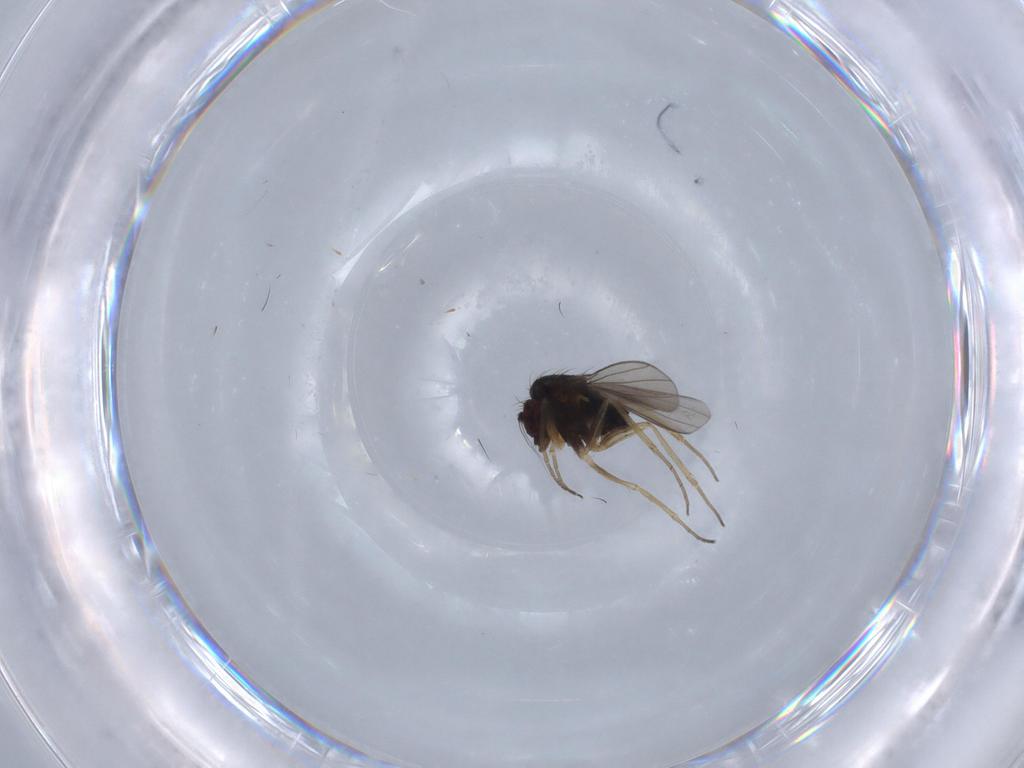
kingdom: Animalia
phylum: Arthropoda
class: Insecta
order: Diptera
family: Dolichopodidae
